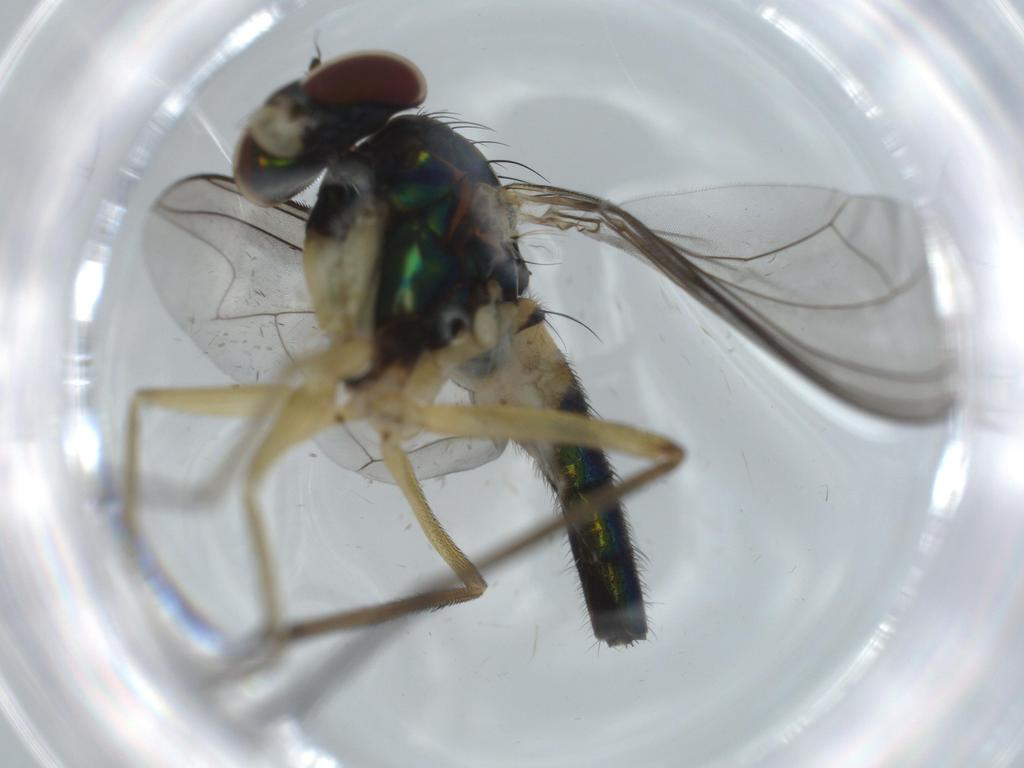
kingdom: Animalia
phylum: Arthropoda
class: Insecta
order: Diptera
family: Dolichopodidae
